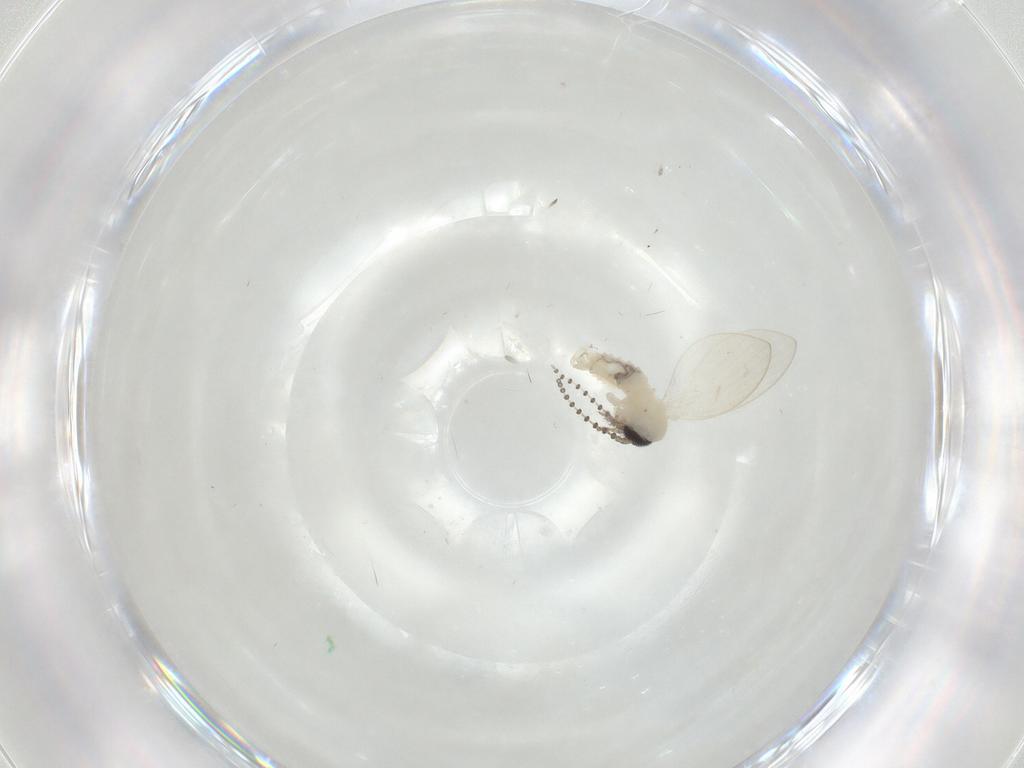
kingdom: Animalia
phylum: Arthropoda
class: Insecta
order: Diptera
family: Psychodidae
